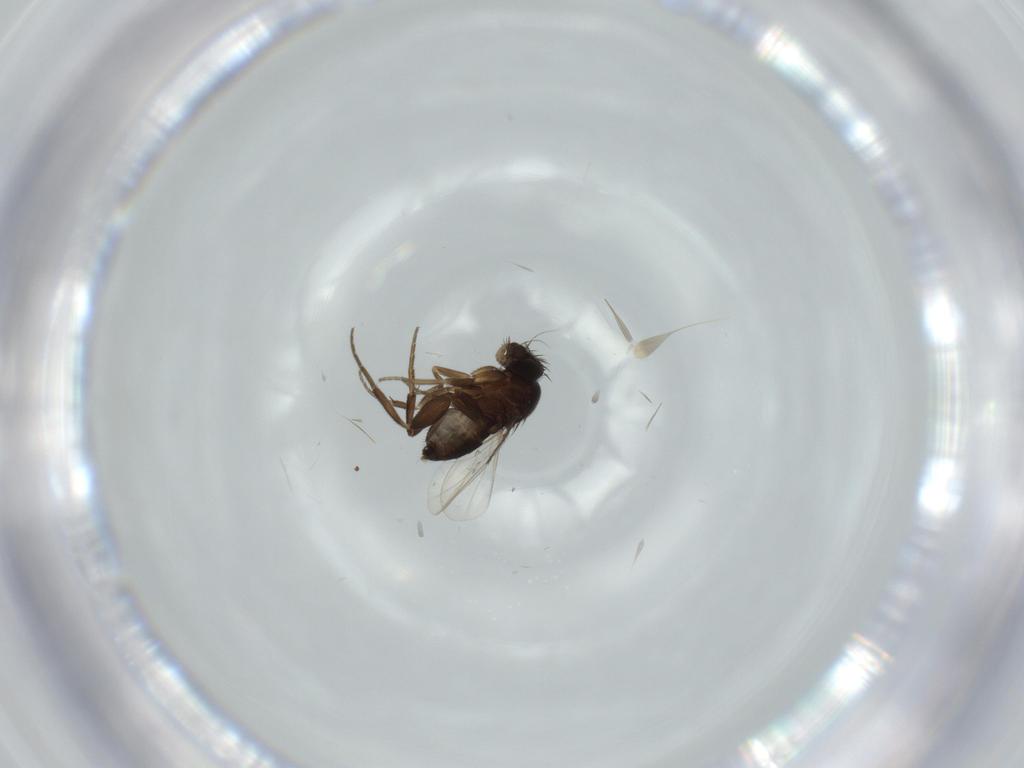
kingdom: Animalia
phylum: Arthropoda
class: Insecta
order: Diptera
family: Phoridae
